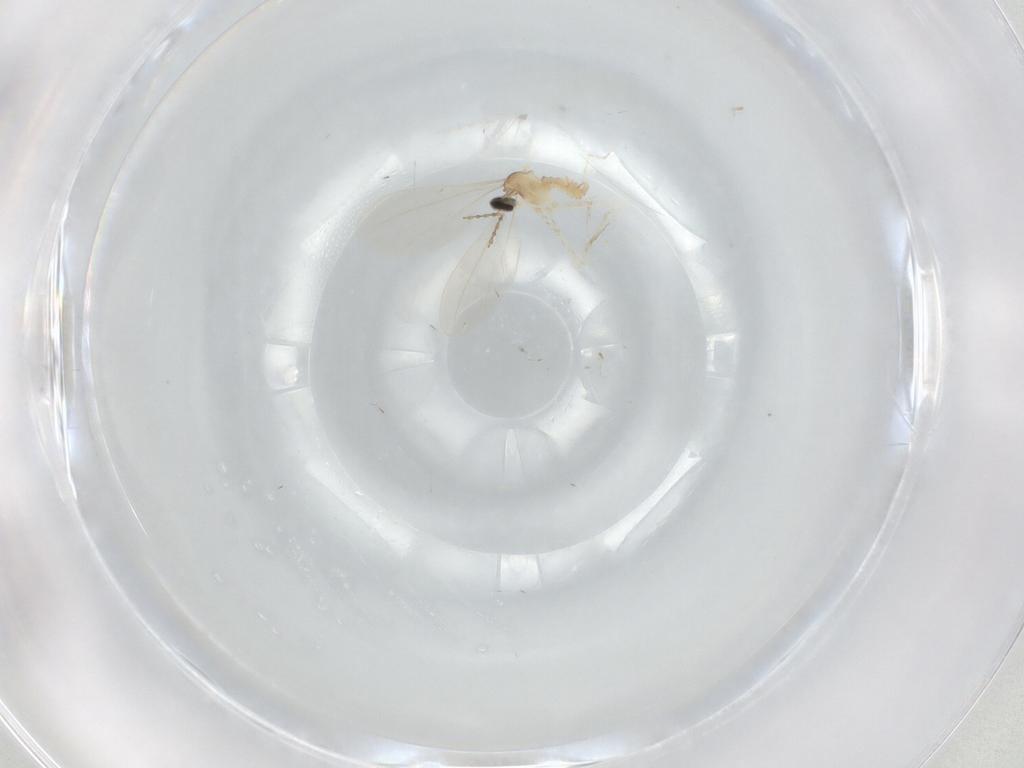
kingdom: Animalia
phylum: Arthropoda
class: Insecta
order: Diptera
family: Cecidomyiidae
